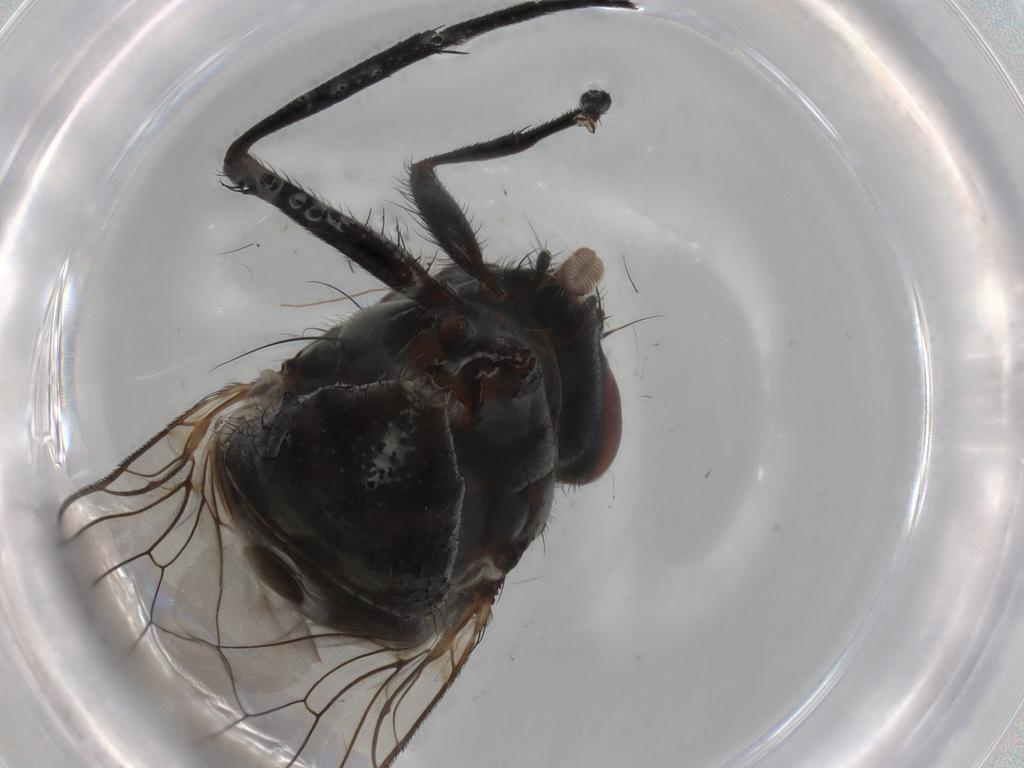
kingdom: Animalia
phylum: Arthropoda
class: Insecta
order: Diptera
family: Anthomyiidae
